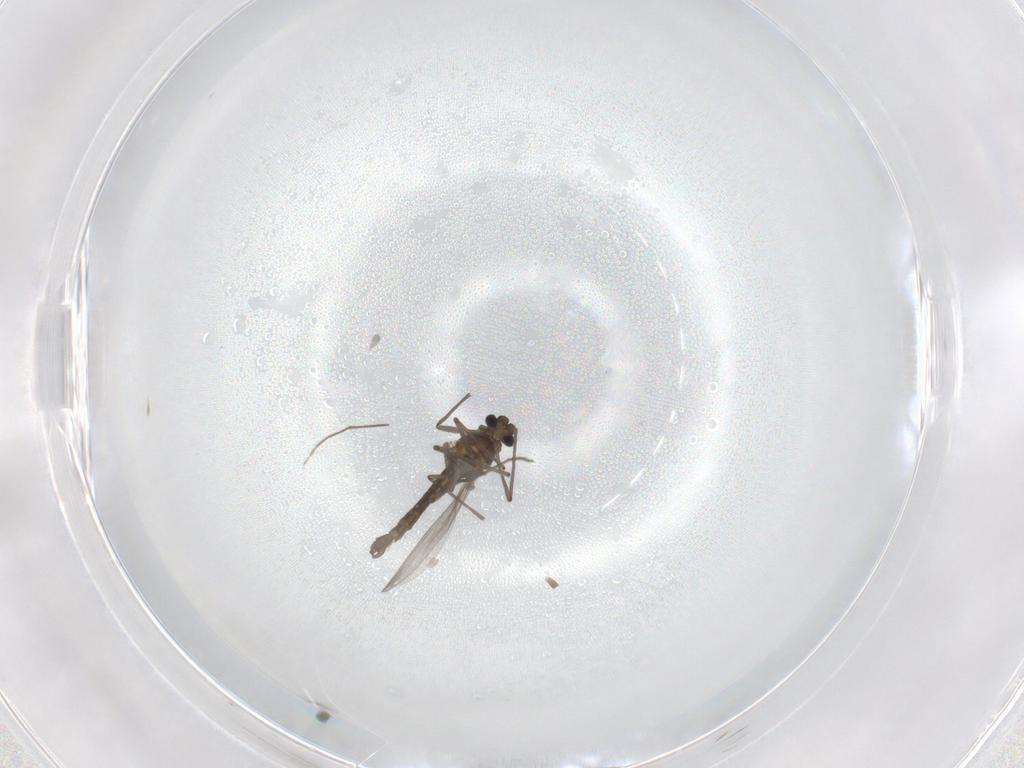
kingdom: Animalia
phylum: Arthropoda
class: Insecta
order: Diptera
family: Chironomidae
